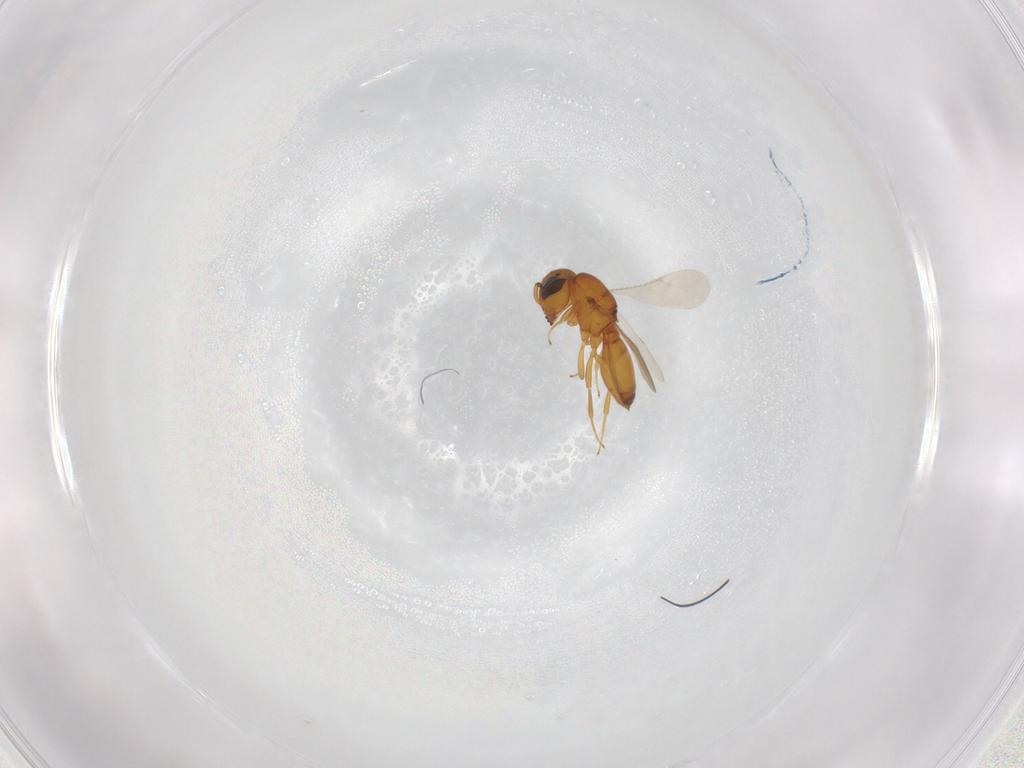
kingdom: Animalia
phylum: Arthropoda
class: Insecta
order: Hymenoptera
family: Scelionidae
